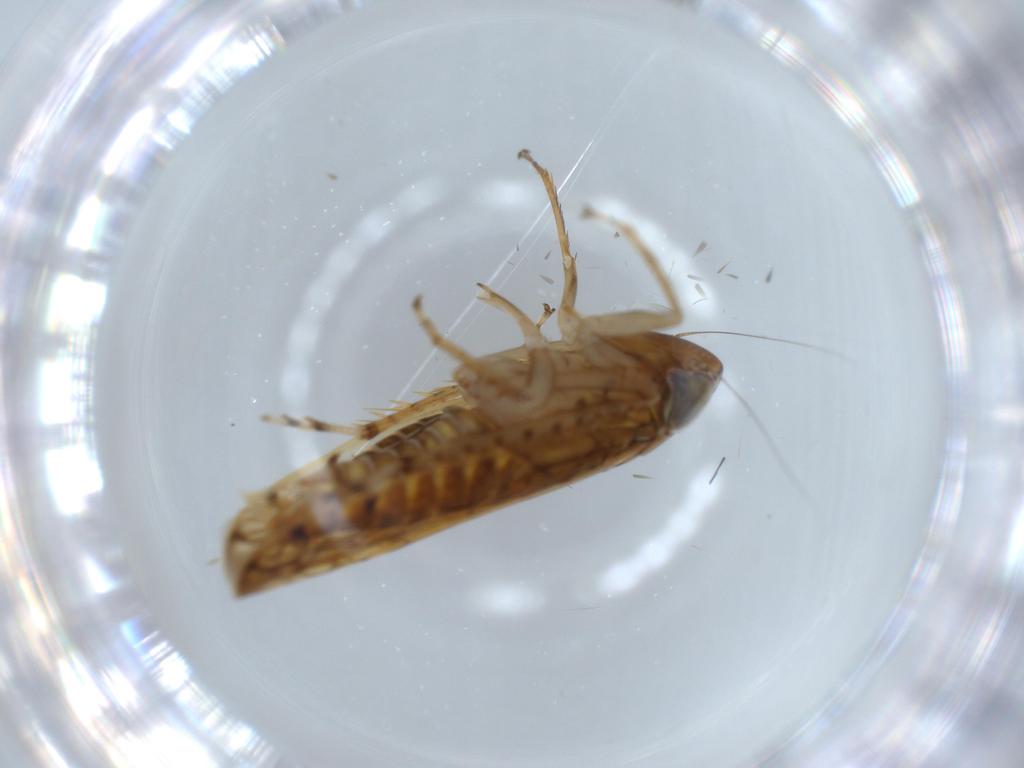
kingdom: Animalia
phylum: Arthropoda
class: Insecta
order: Hemiptera
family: Cicadellidae
